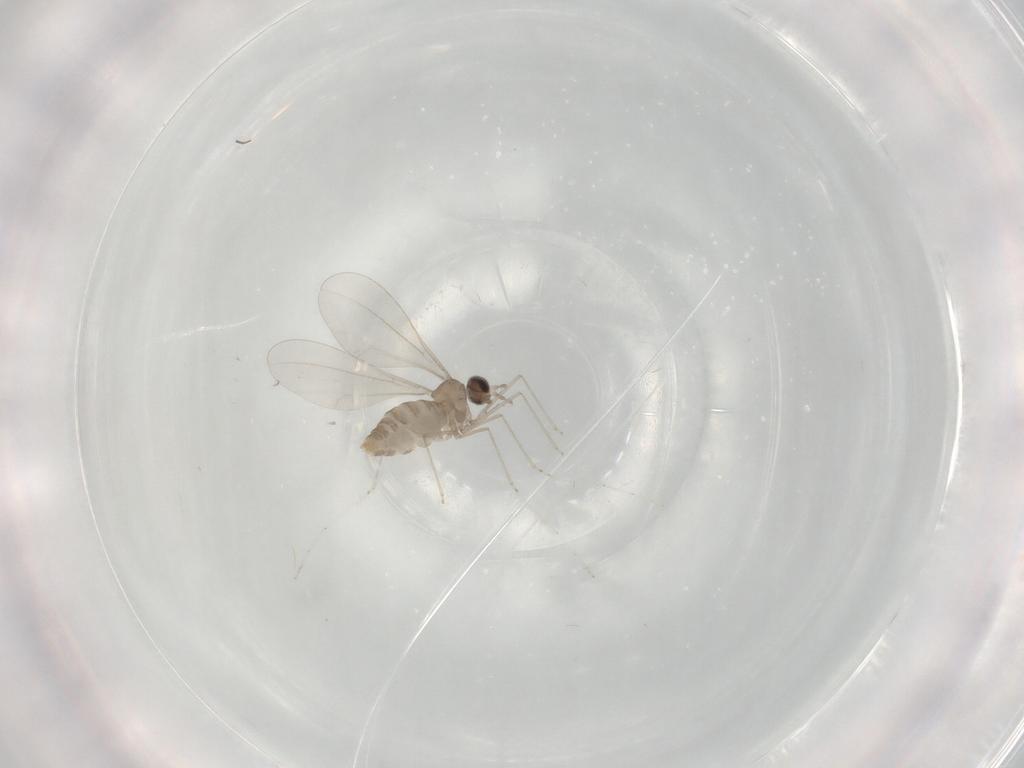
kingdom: Animalia
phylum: Arthropoda
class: Insecta
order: Diptera
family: Cecidomyiidae
